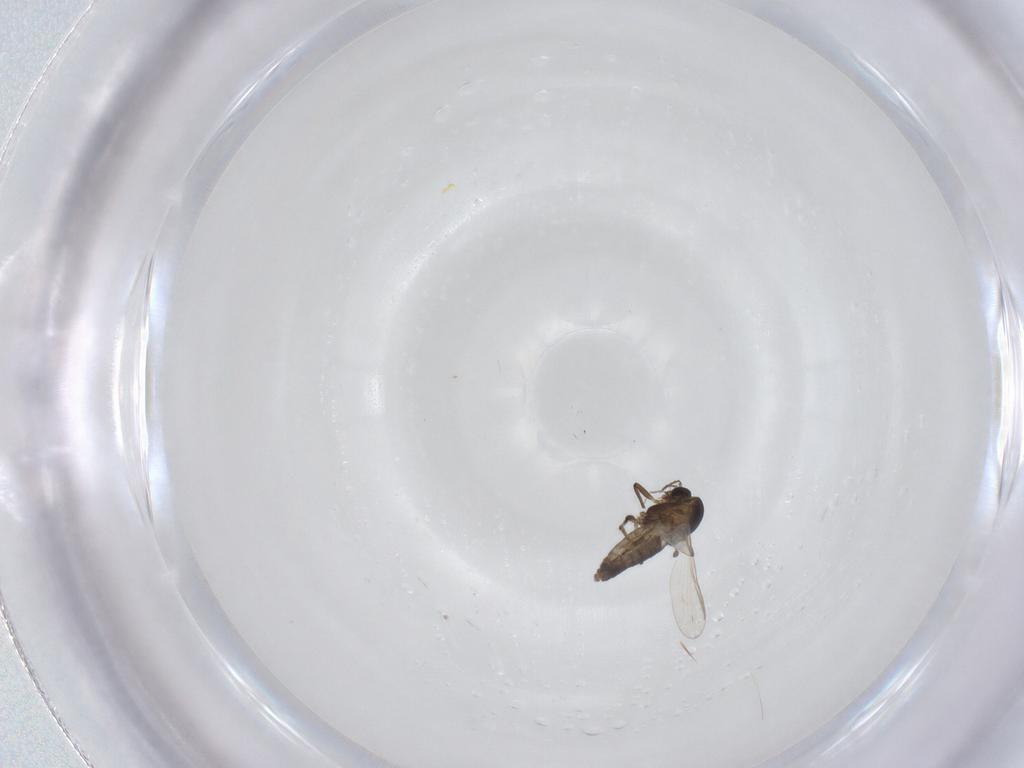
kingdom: Animalia
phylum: Arthropoda
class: Insecta
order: Diptera
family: Chironomidae
